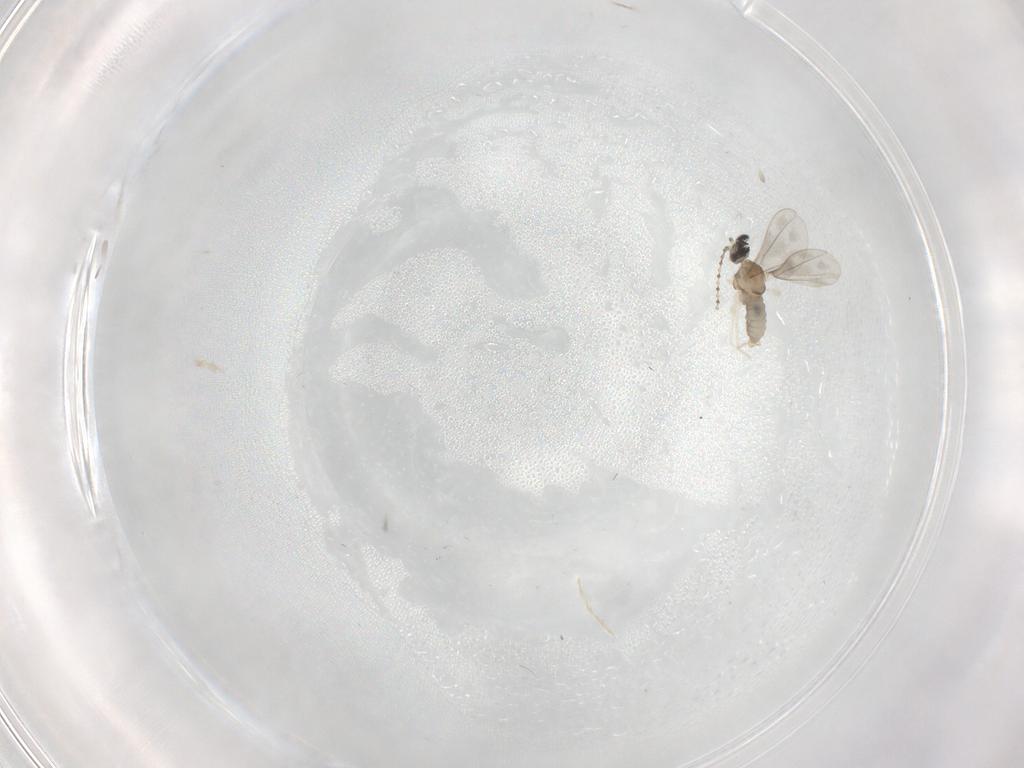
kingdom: Animalia
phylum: Arthropoda
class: Insecta
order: Diptera
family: Cecidomyiidae
